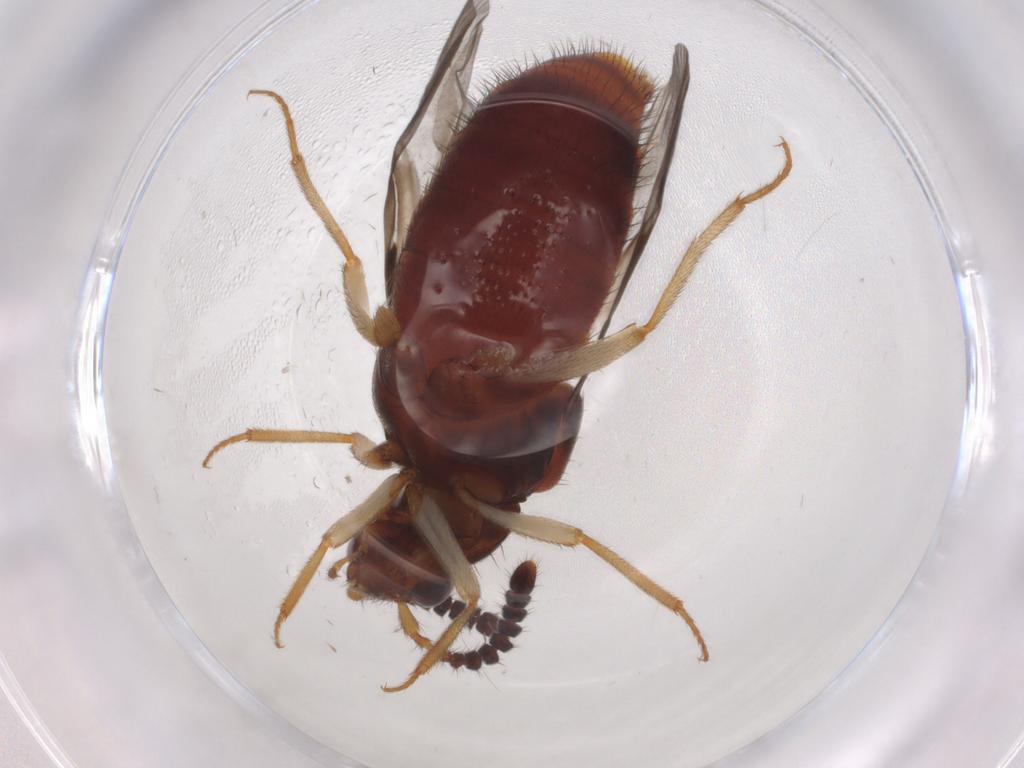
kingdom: Animalia
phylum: Arthropoda
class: Insecta
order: Coleoptera
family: Staphylinidae
